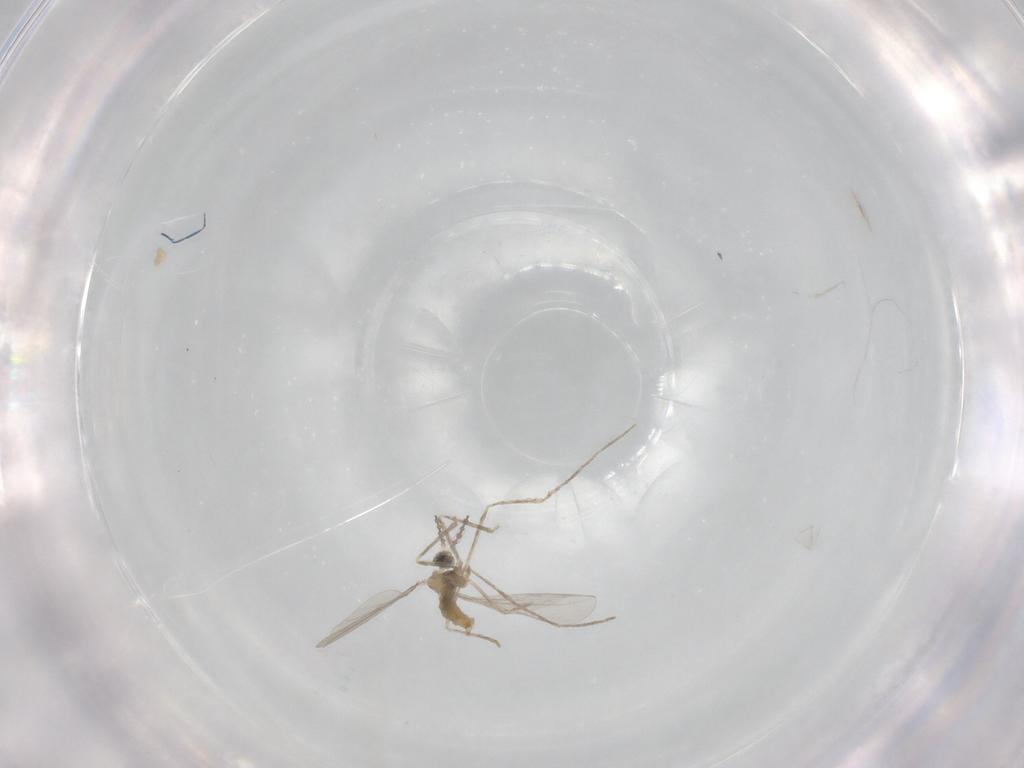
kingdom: Animalia
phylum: Arthropoda
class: Insecta
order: Diptera
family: Cecidomyiidae
